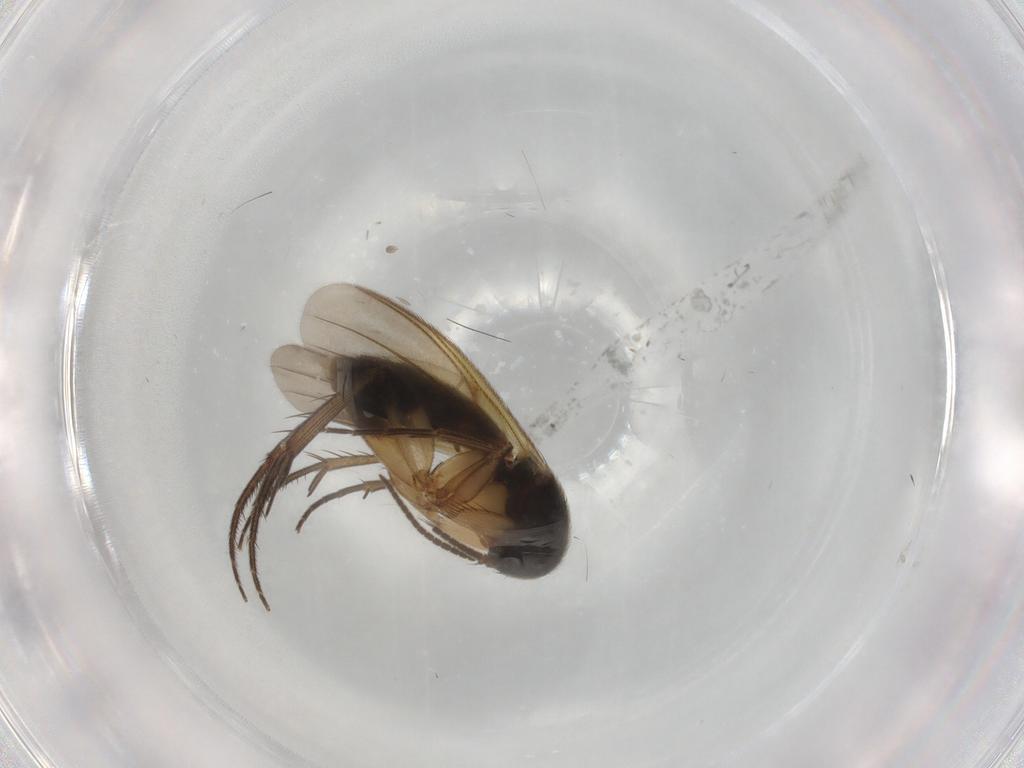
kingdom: Animalia
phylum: Arthropoda
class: Insecta
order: Diptera
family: Hybotidae
